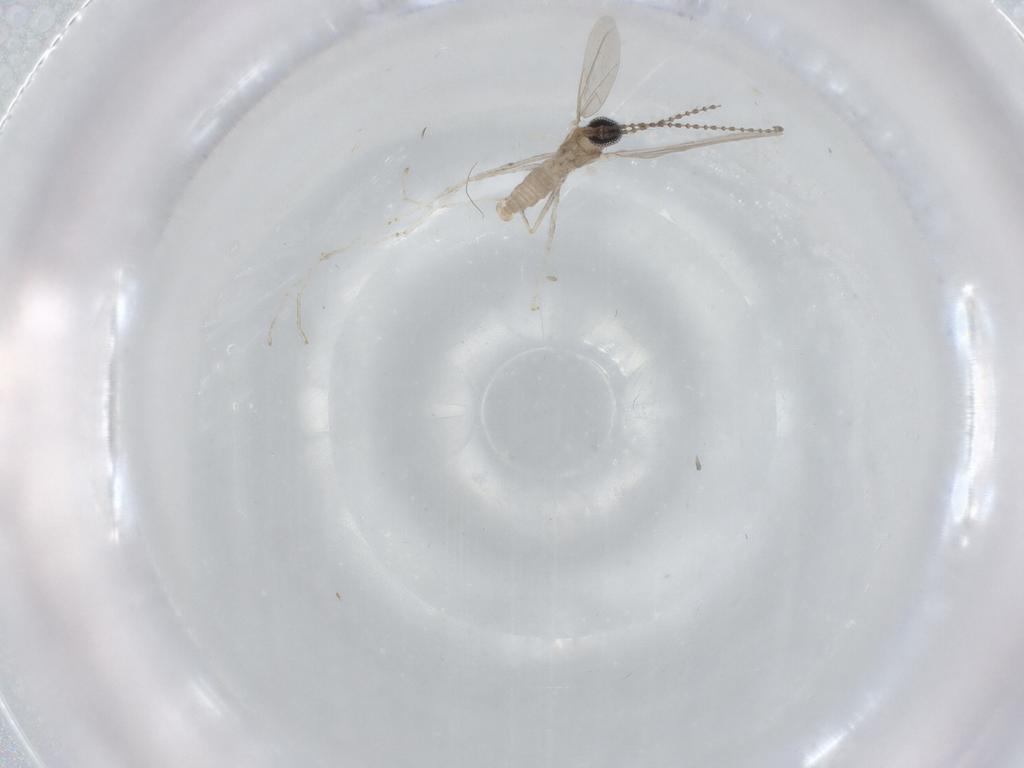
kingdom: Animalia
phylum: Arthropoda
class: Insecta
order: Diptera
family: Cecidomyiidae
